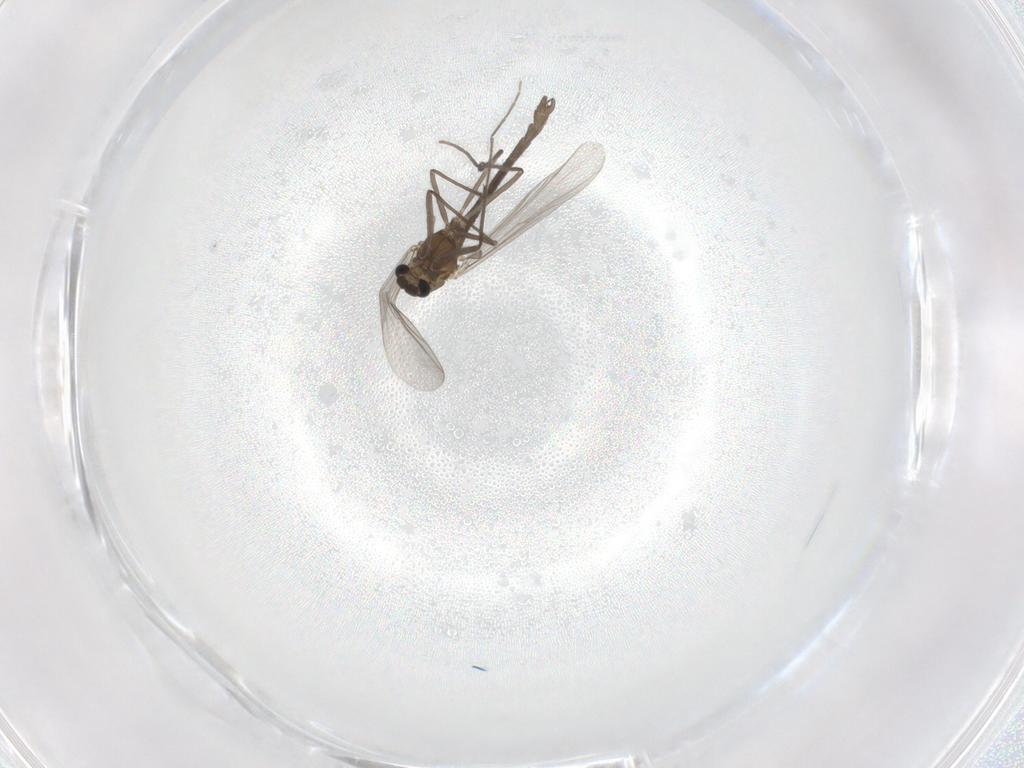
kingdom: Animalia
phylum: Arthropoda
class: Insecta
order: Diptera
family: Chironomidae
